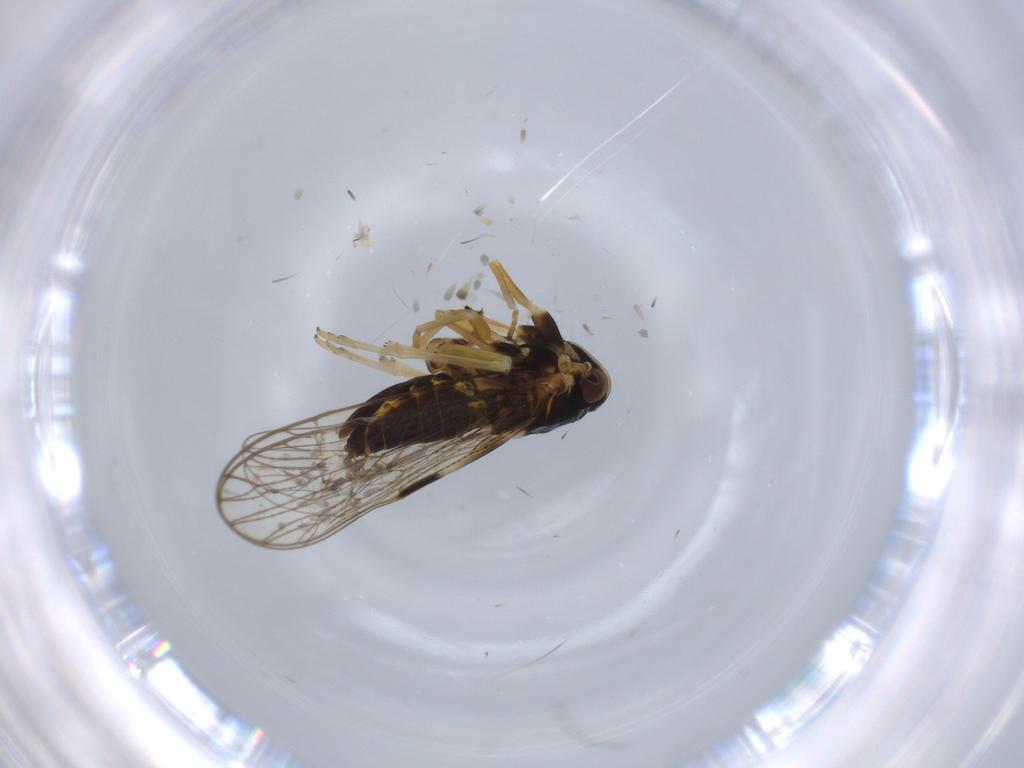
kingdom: Animalia
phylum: Arthropoda
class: Insecta
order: Hemiptera
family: Cicadellidae
